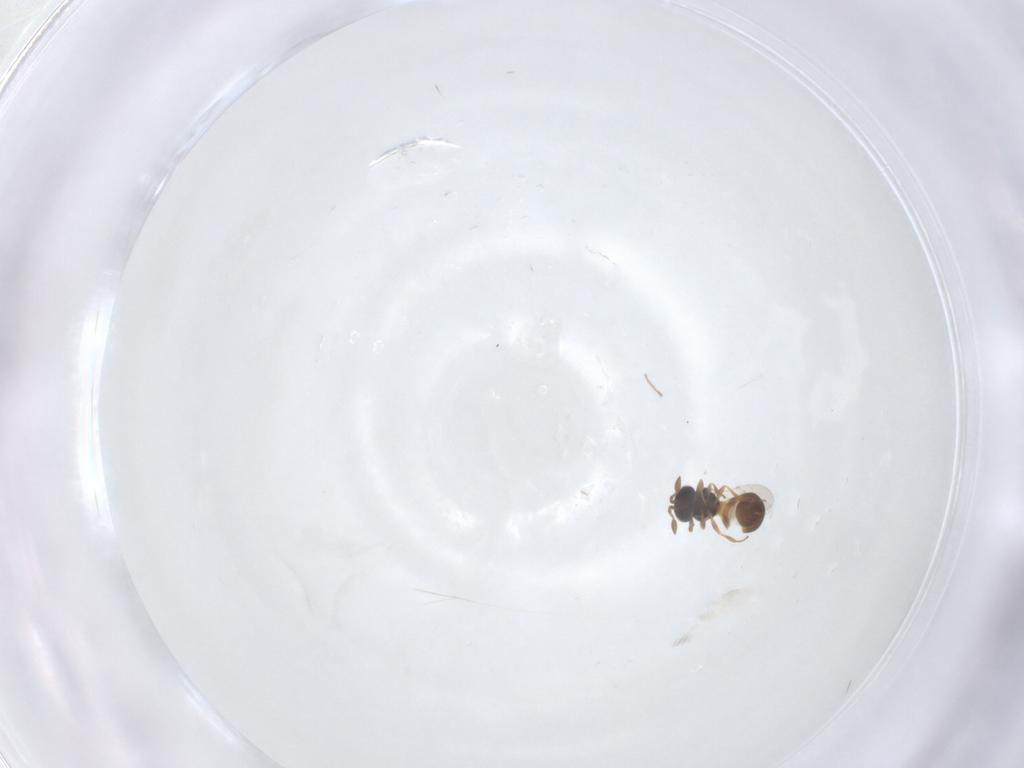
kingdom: Animalia
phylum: Arthropoda
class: Insecta
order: Hymenoptera
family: Scelionidae
